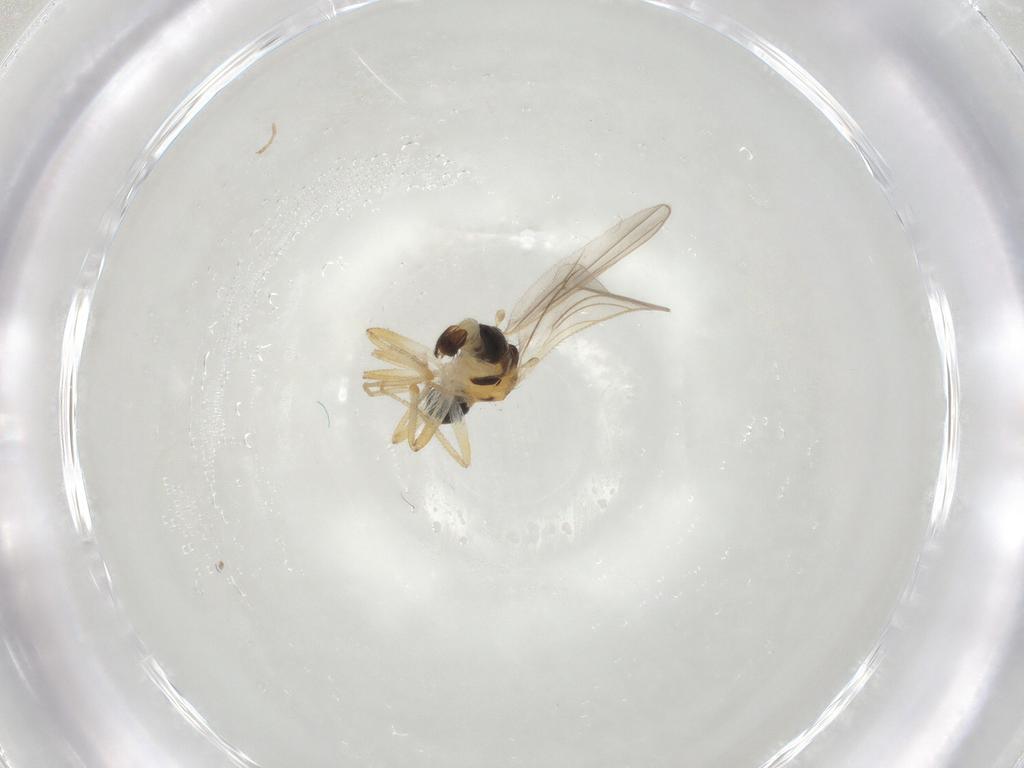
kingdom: Animalia
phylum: Arthropoda
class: Insecta
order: Diptera
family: Hybotidae
